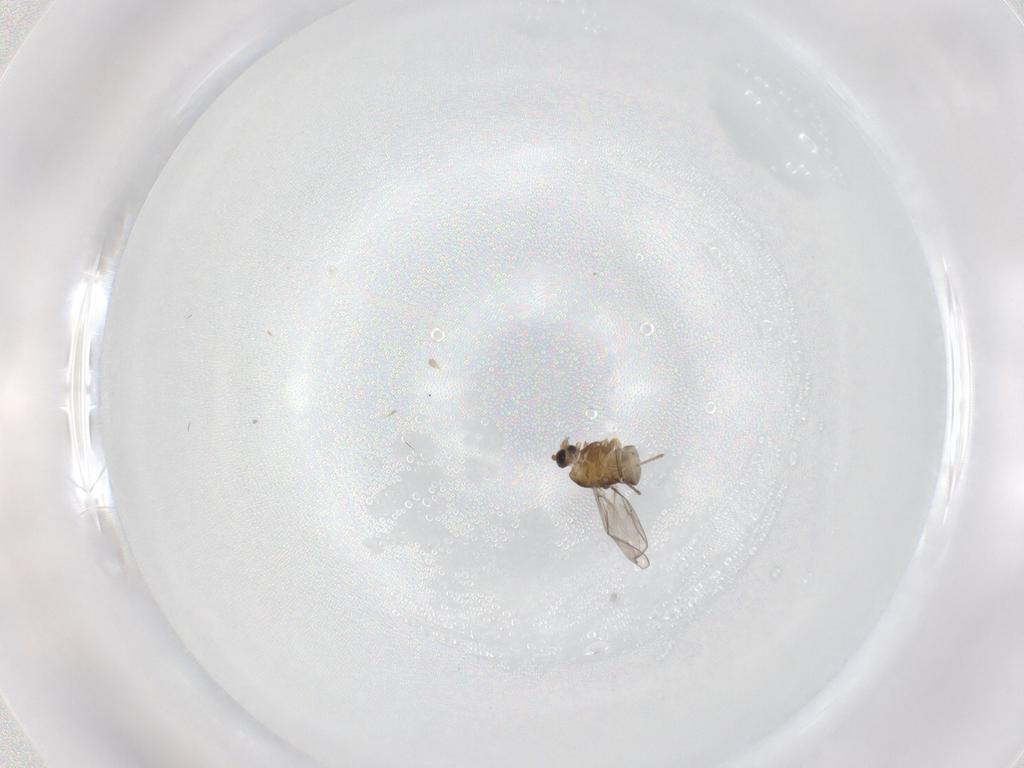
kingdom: Animalia
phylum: Arthropoda
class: Insecta
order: Diptera
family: Chironomidae
